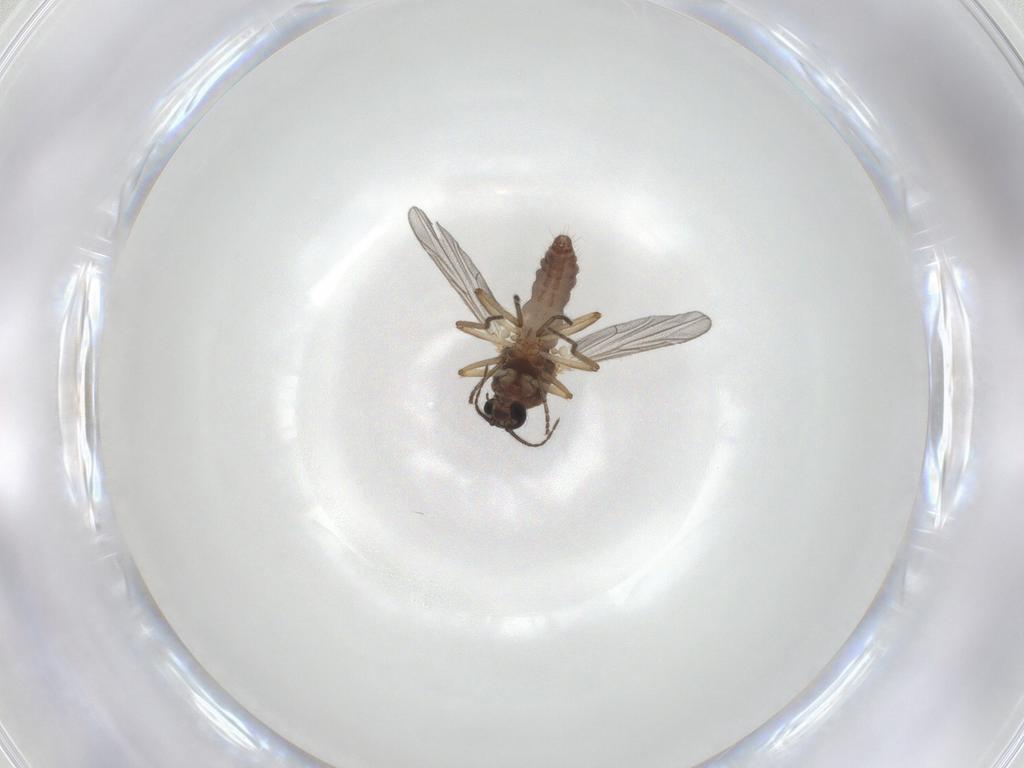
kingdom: Animalia
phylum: Arthropoda
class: Insecta
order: Diptera
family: Ceratopogonidae
